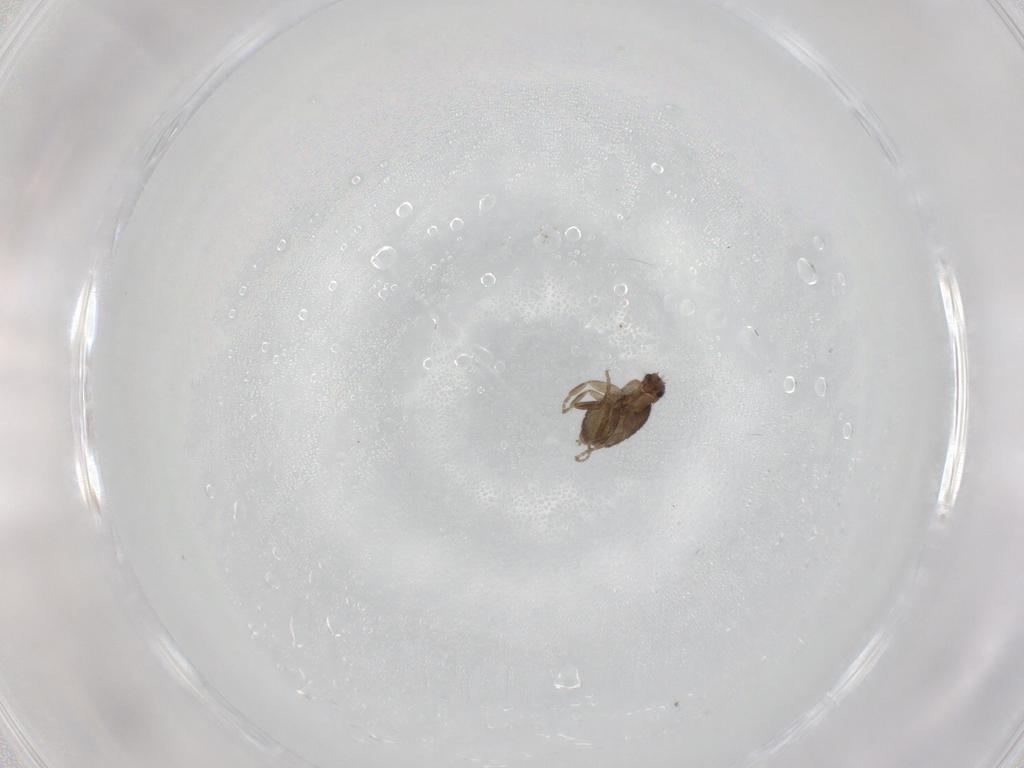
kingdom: Animalia
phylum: Arthropoda
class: Insecta
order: Diptera
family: Phoridae
